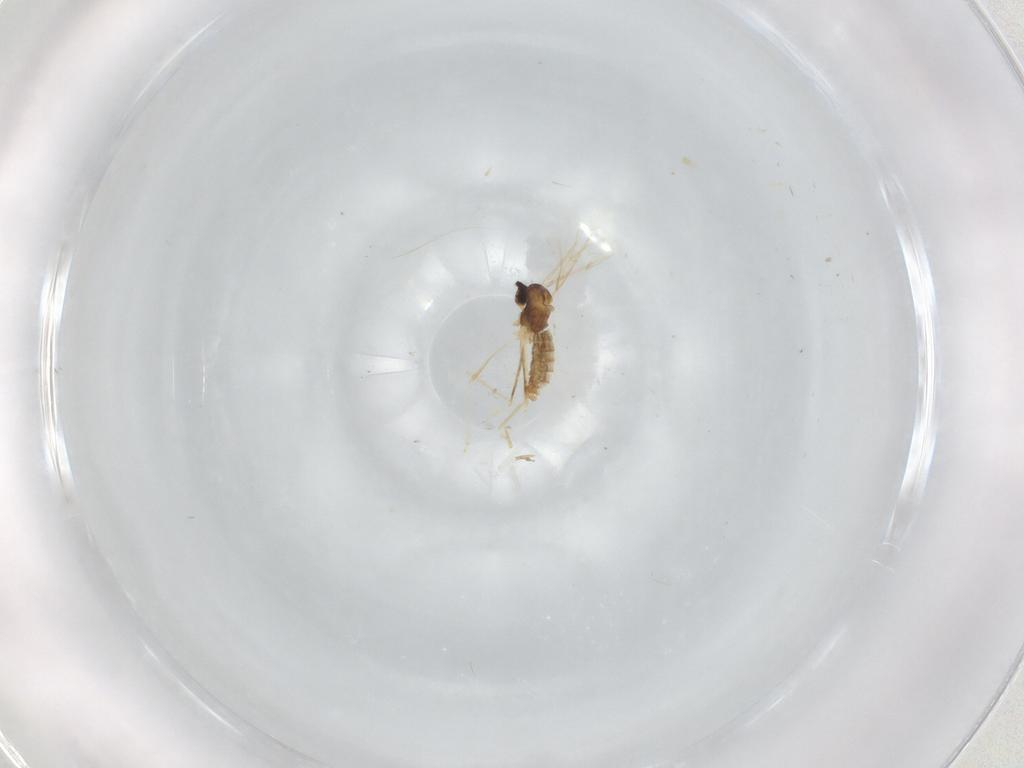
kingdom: Animalia
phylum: Arthropoda
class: Insecta
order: Diptera
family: Cecidomyiidae
